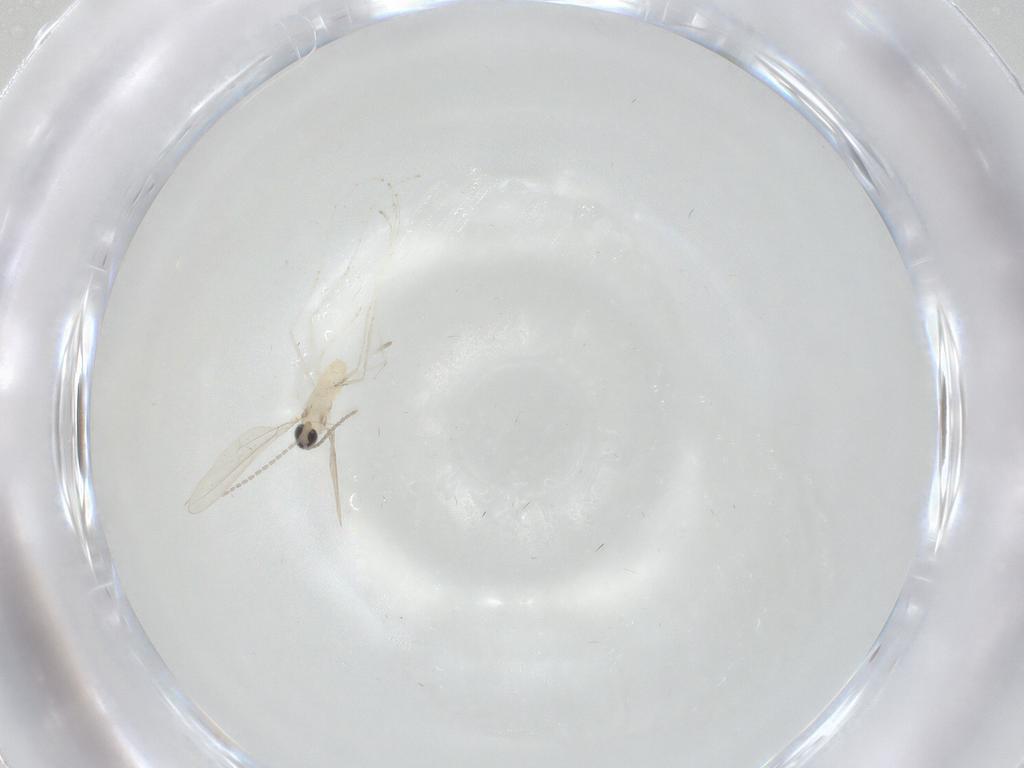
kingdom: Animalia
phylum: Arthropoda
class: Insecta
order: Diptera
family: Cecidomyiidae
